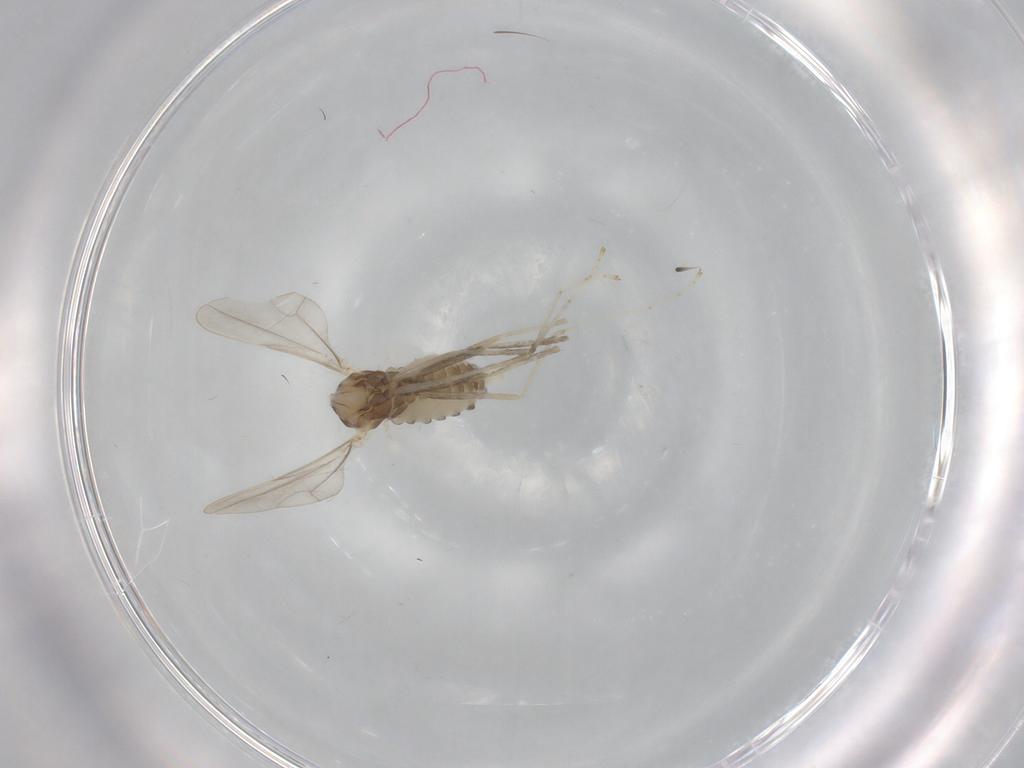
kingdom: Animalia
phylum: Arthropoda
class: Insecta
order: Diptera
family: Cecidomyiidae
